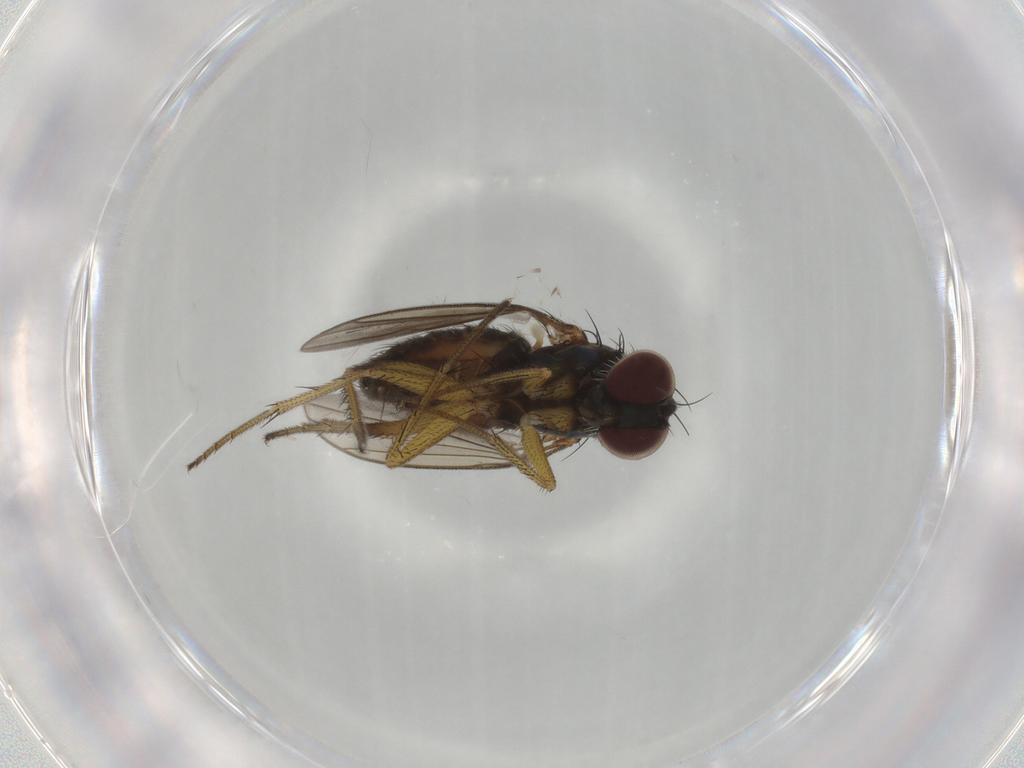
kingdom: Animalia
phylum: Arthropoda
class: Insecta
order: Diptera
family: Dolichopodidae
